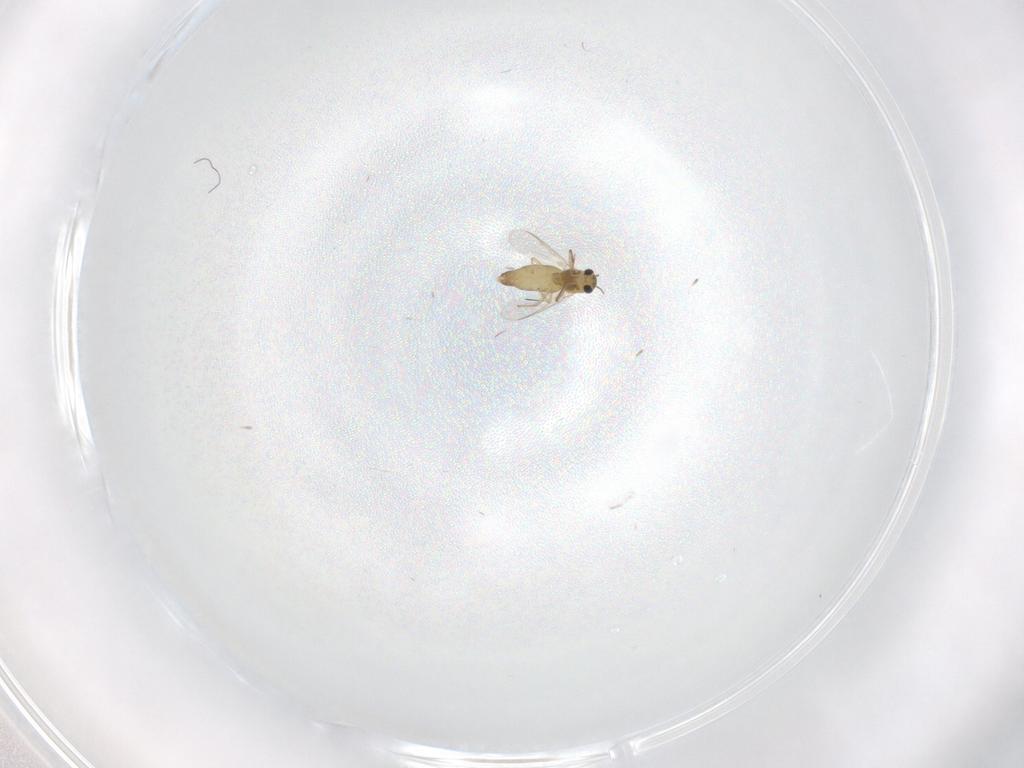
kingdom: Animalia
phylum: Arthropoda
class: Insecta
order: Diptera
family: Chironomidae
